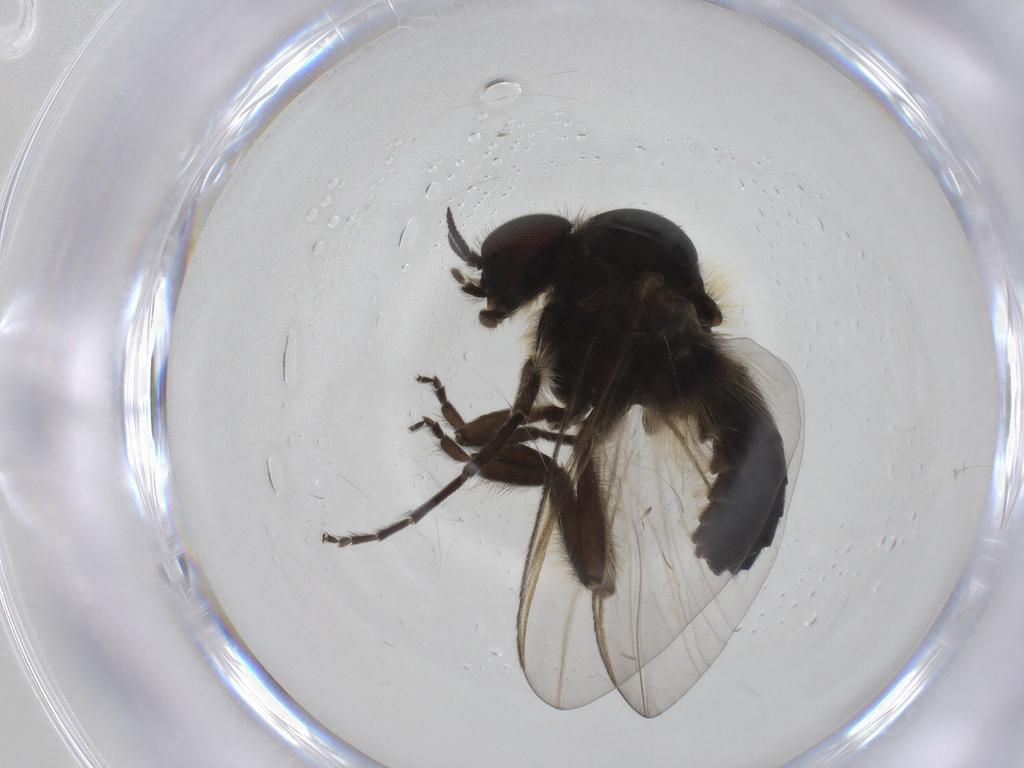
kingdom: Animalia
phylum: Arthropoda
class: Insecta
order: Diptera
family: Chironomidae
